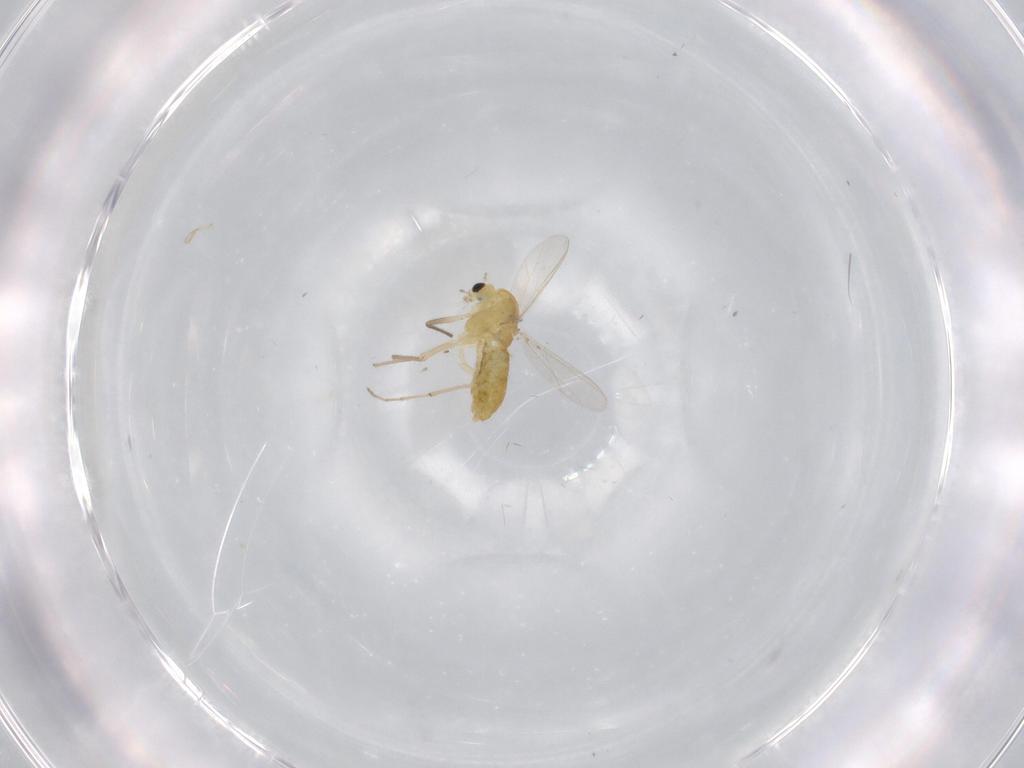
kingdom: Animalia
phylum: Arthropoda
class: Insecta
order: Diptera
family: Chironomidae
